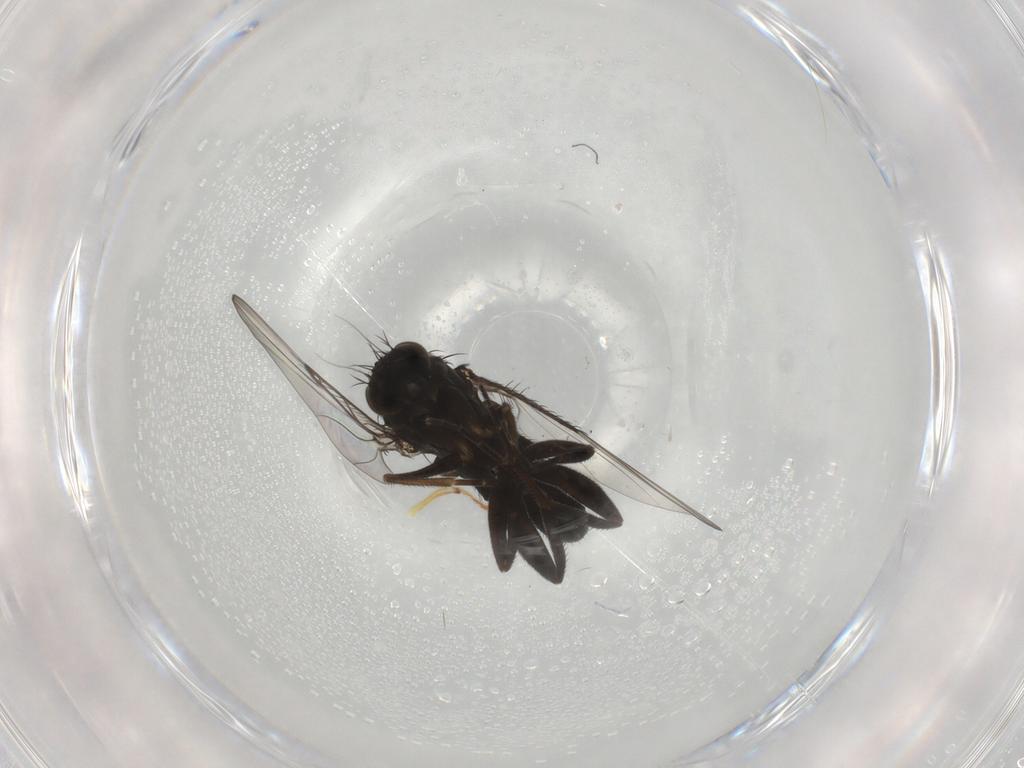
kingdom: Animalia
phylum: Arthropoda
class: Insecta
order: Diptera
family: Phoridae
